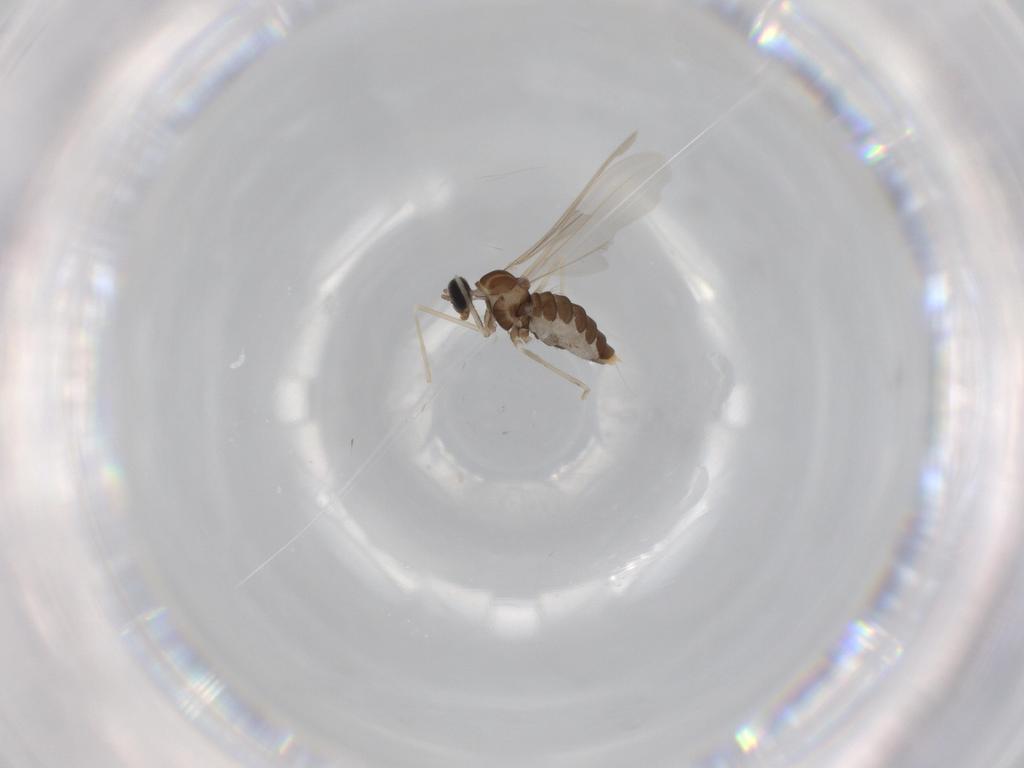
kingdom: Animalia
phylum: Arthropoda
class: Insecta
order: Diptera
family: Cecidomyiidae
